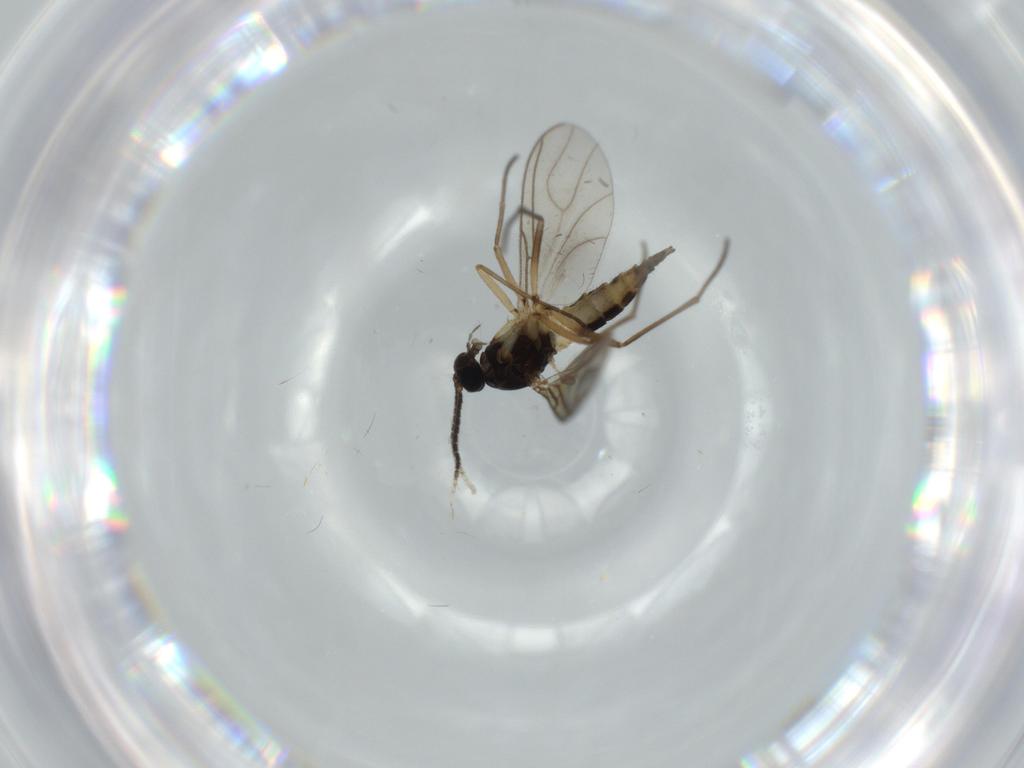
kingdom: Animalia
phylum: Arthropoda
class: Insecta
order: Diptera
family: Sciaridae
